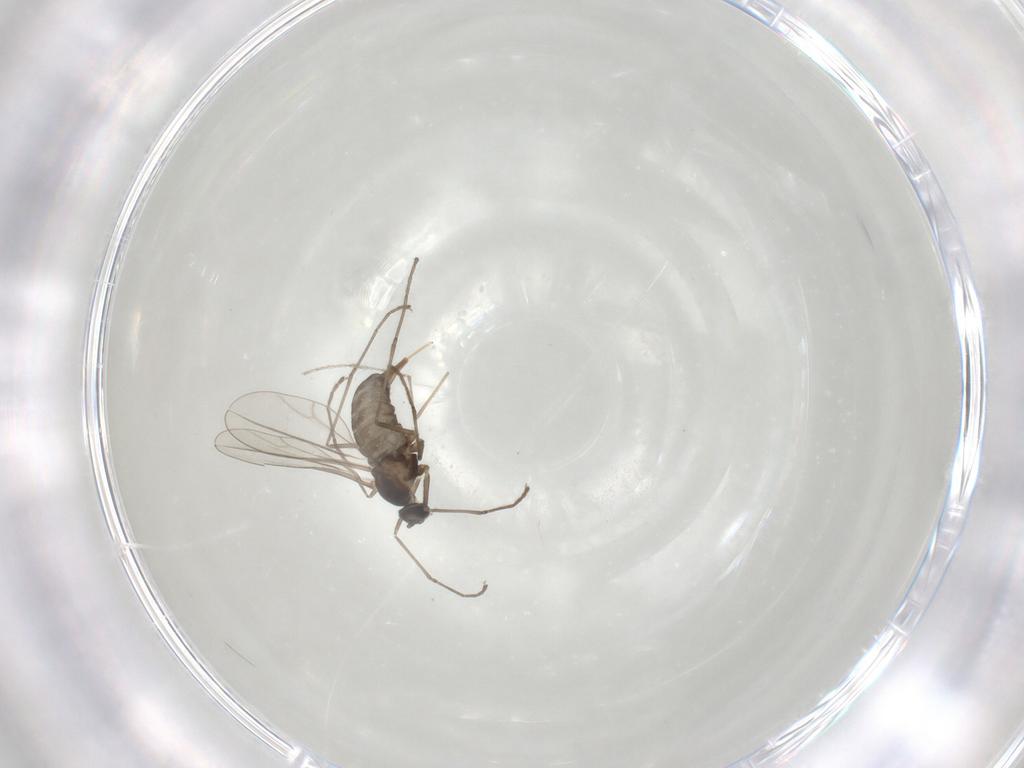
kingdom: Animalia
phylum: Arthropoda
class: Insecta
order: Diptera
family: Cecidomyiidae
